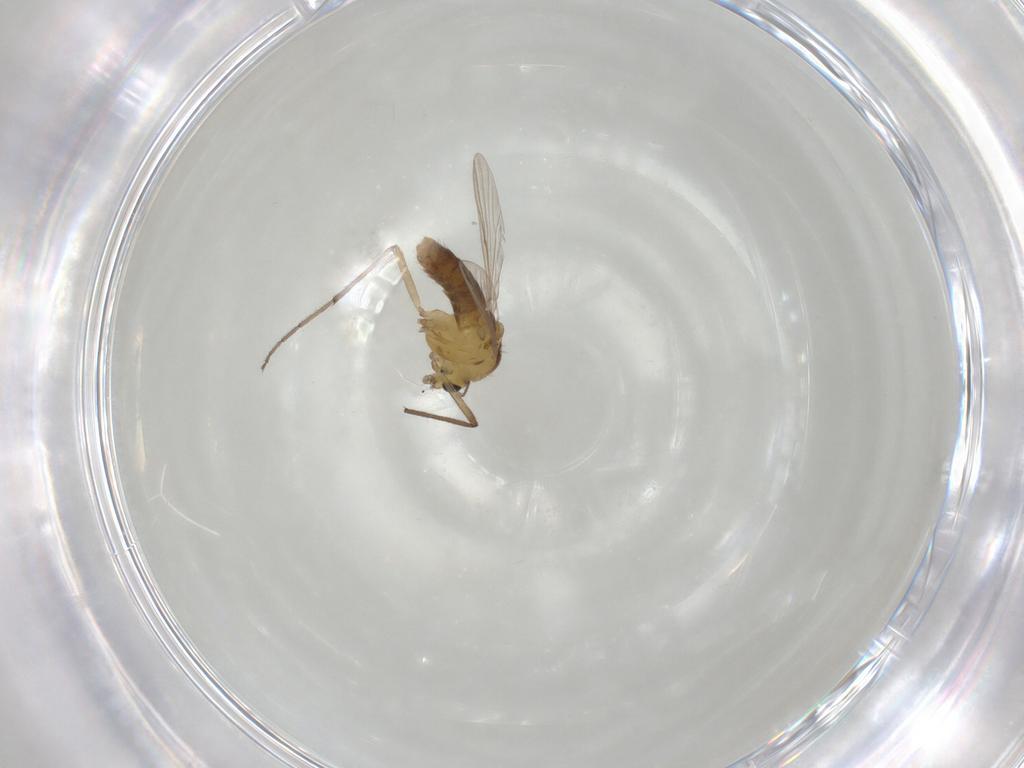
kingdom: Animalia
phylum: Arthropoda
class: Insecta
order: Diptera
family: Chironomidae
